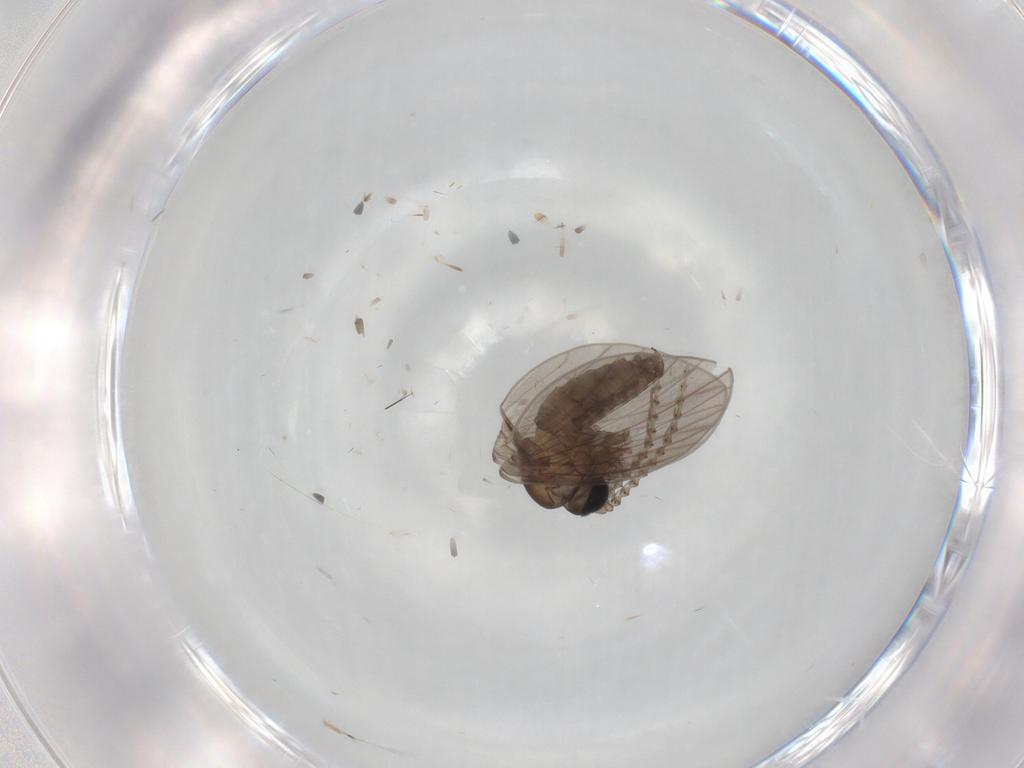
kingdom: Animalia
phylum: Arthropoda
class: Insecta
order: Diptera
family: Psychodidae
